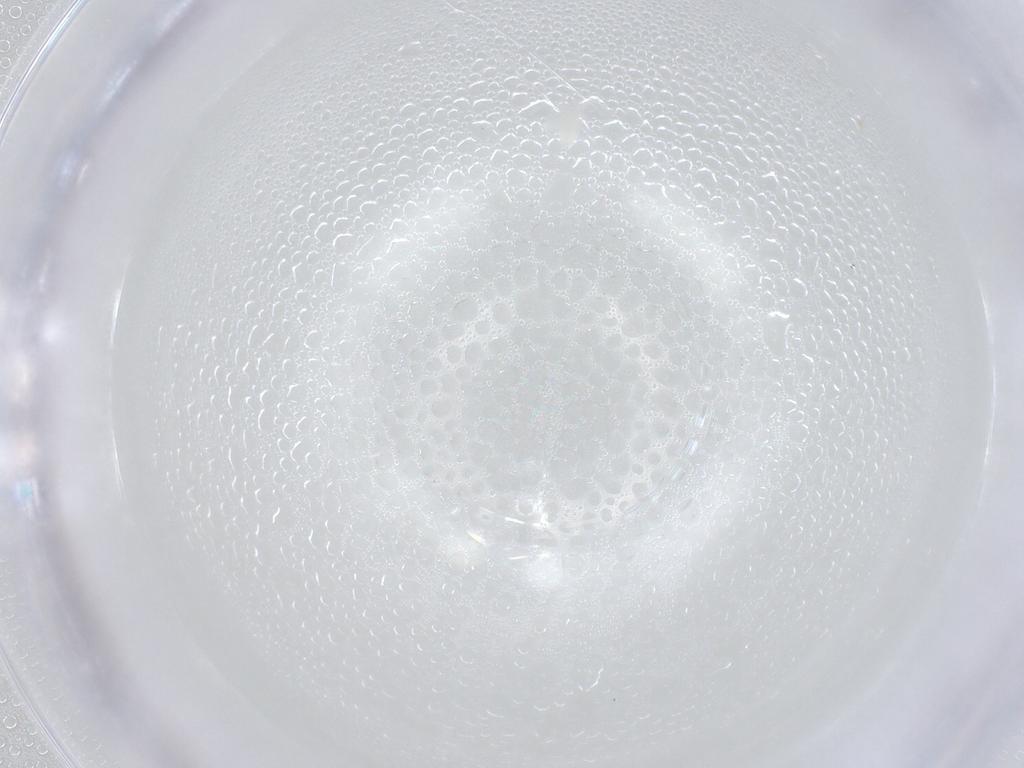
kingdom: Animalia
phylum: Arthropoda
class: Arachnida
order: Trombidiformes
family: Eupodidae
